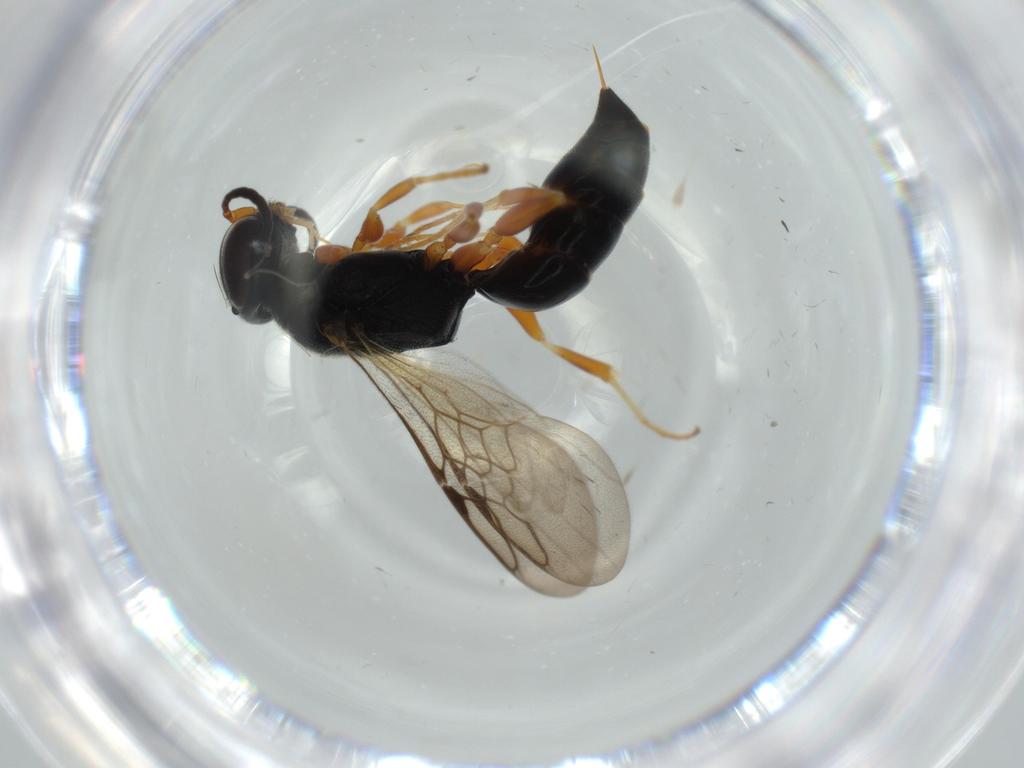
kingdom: Animalia
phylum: Arthropoda
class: Insecta
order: Hymenoptera
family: Crabronidae
